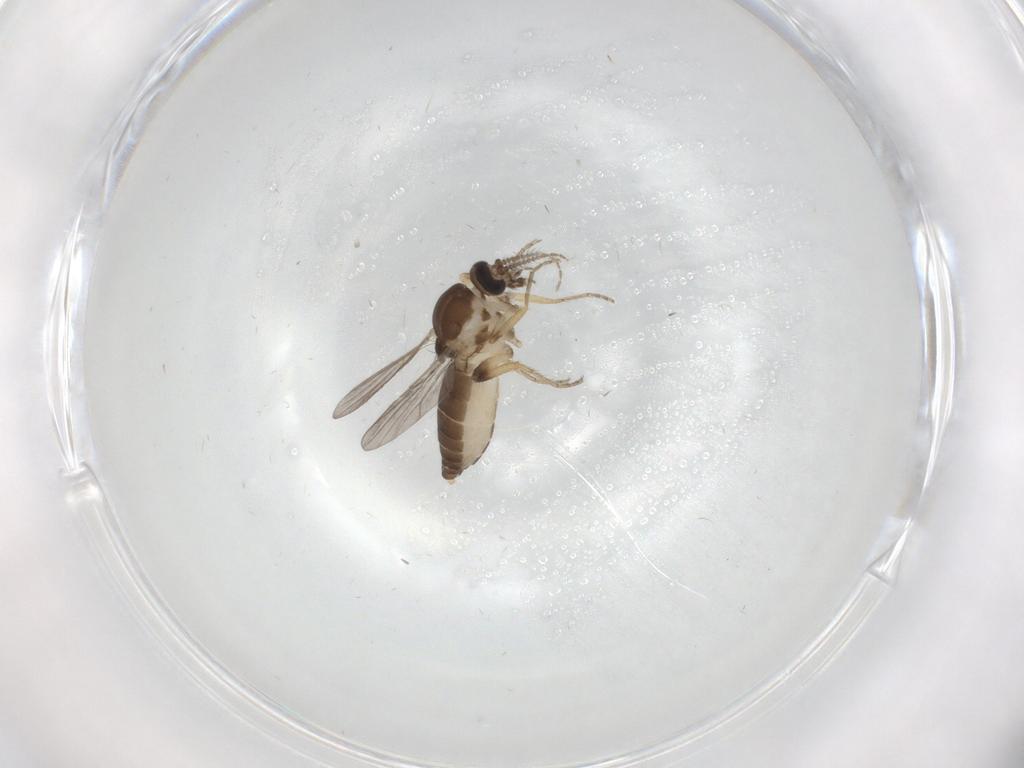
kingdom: Animalia
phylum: Arthropoda
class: Insecta
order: Diptera
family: Ceratopogonidae
